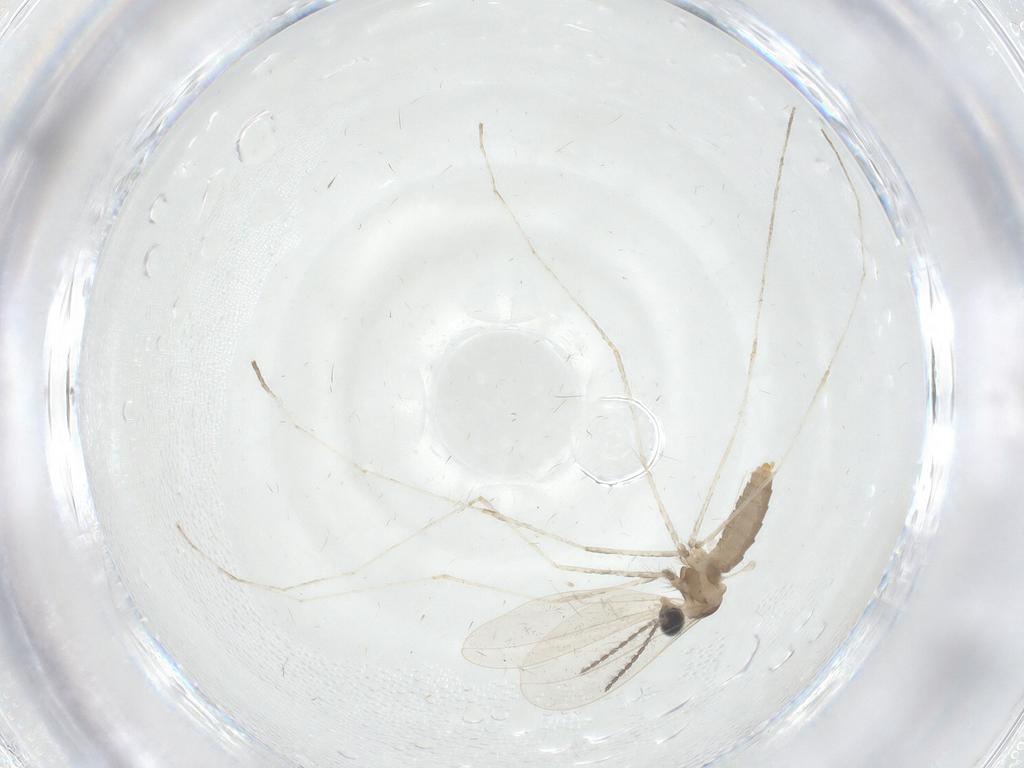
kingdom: Animalia
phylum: Arthropoda
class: Insecta
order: Diptera
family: Cecidomyiidae
